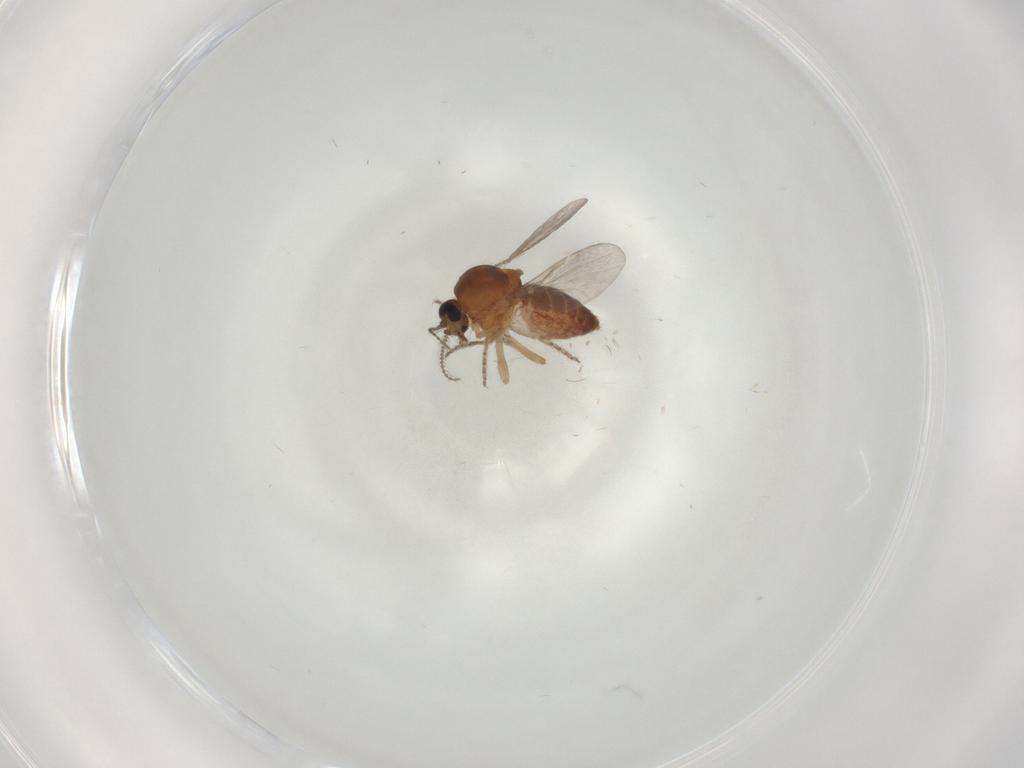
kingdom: Animalia
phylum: Arthropoda
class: Insecta
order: Diptera
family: Ceratopogonidae
